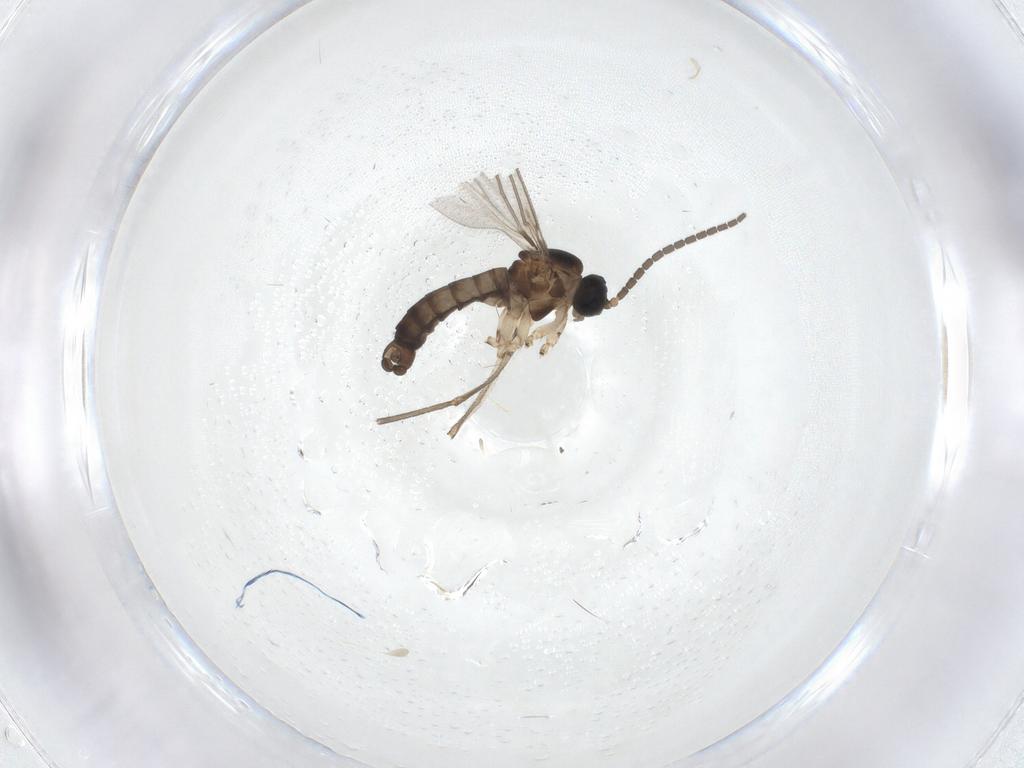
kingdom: Animalia
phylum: Arthropoda
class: Insecta
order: Diptera
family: Sciaridae
